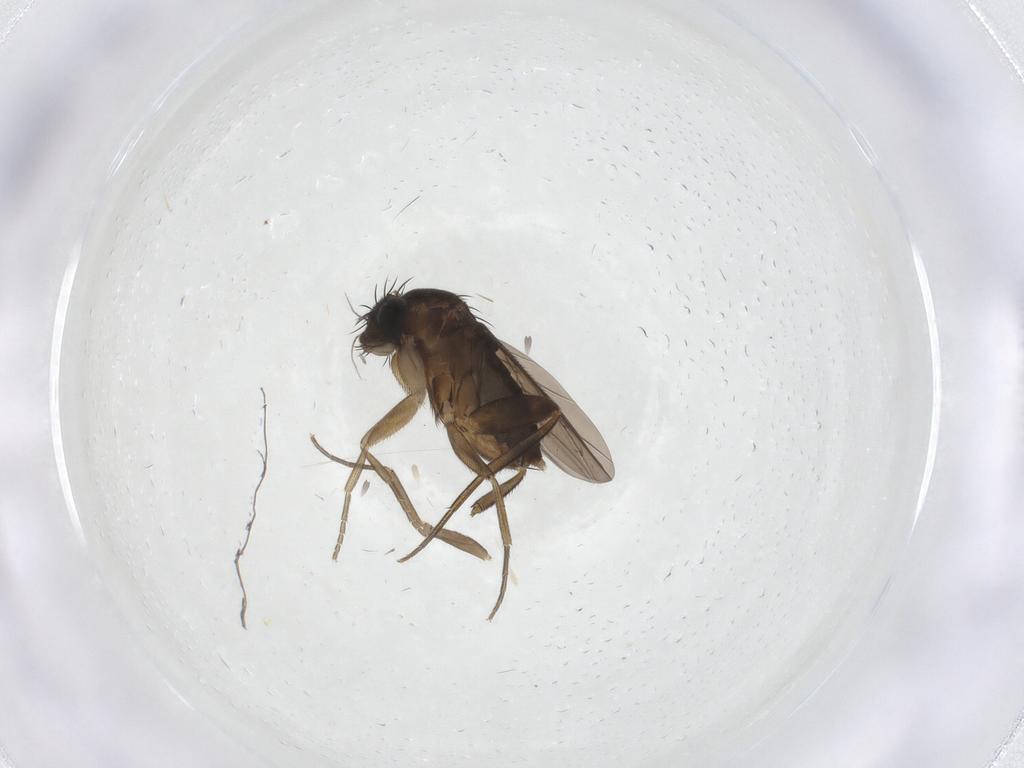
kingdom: Animalia
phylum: Arthropoda
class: Insecta
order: Diptera
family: Phoridae
